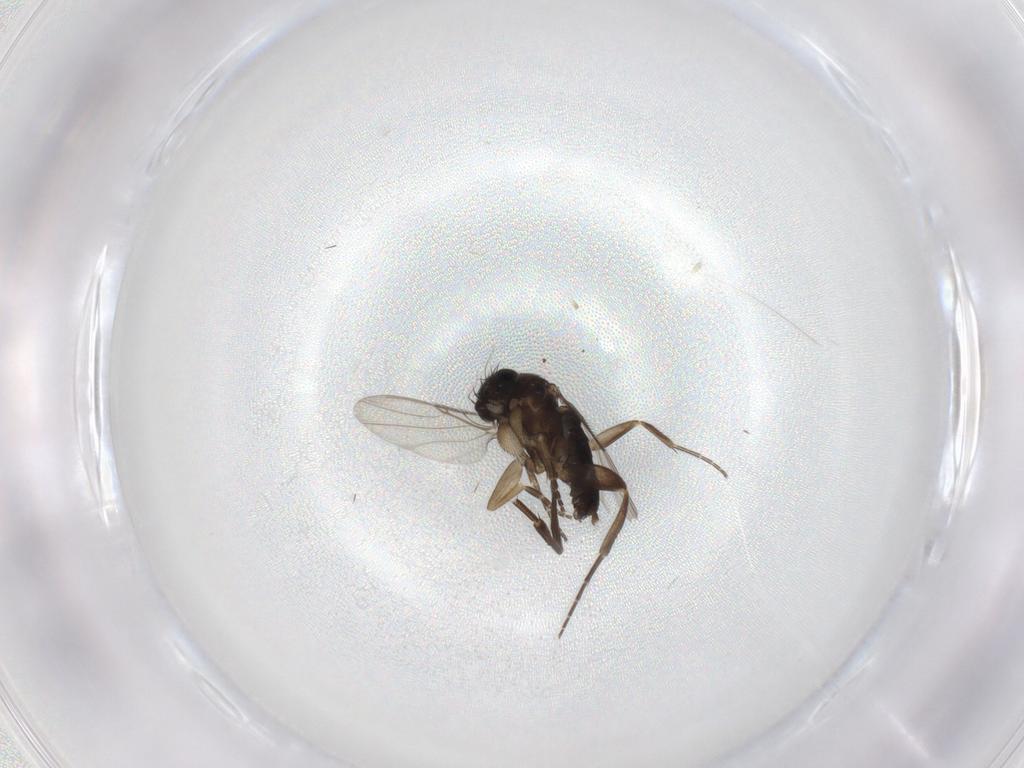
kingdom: Animalia
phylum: Arthropoda
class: Insecta
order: Diptera
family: Phoridae
